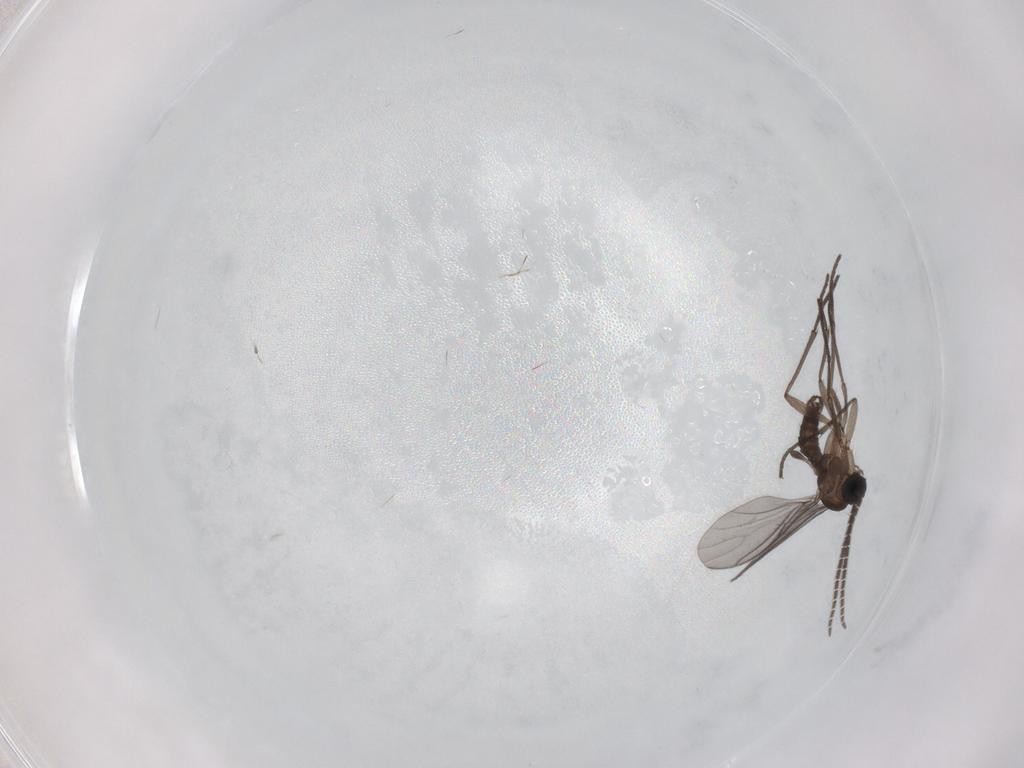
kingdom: Animalia
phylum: Arthropoda
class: Insecta
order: Diptera
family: Sciaridae
